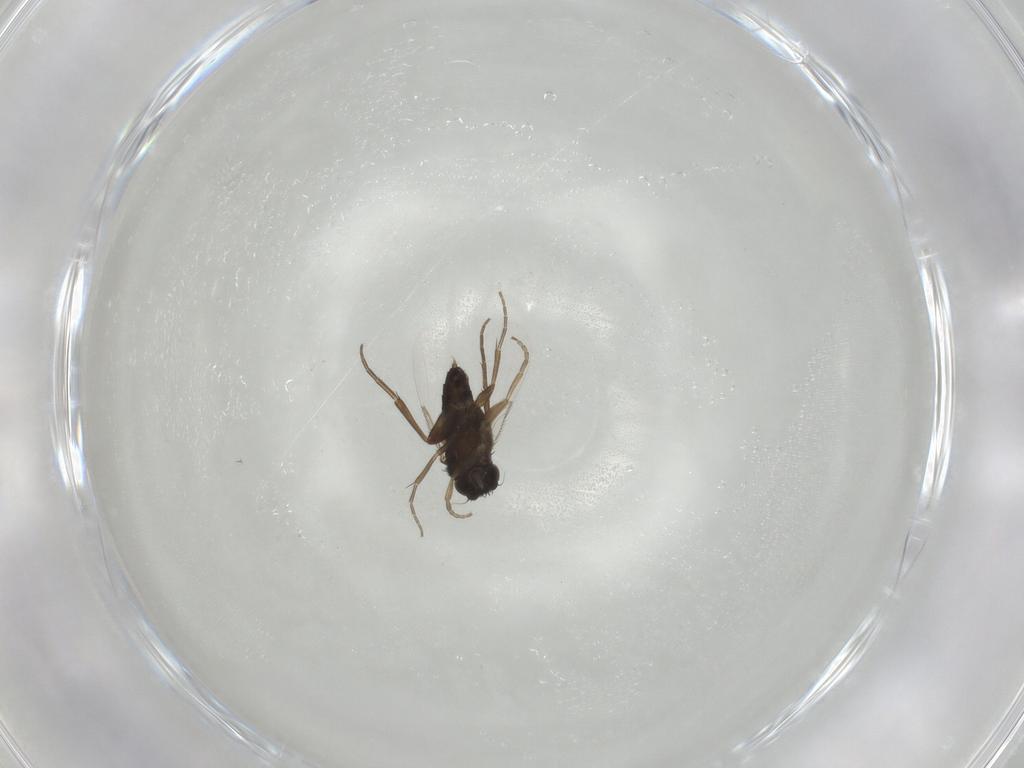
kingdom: Animalia
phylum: Arthropoda
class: Insecta
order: Diptera
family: Phoridae
